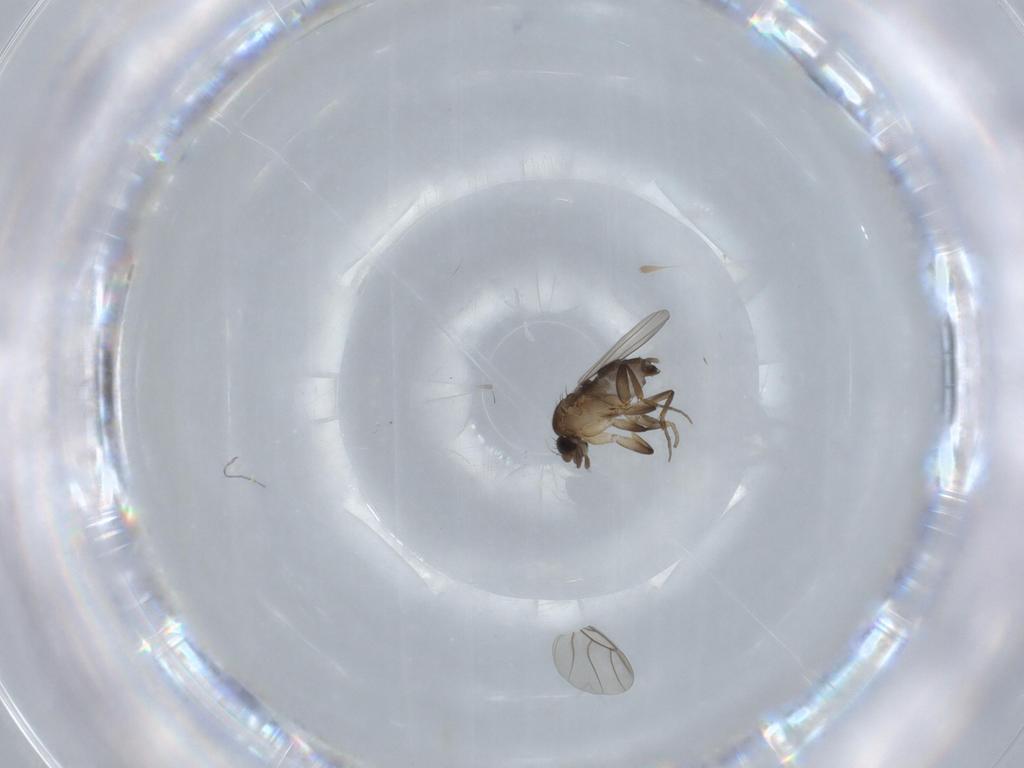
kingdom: Animalia
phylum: Arthropoda
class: Insecta
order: Diptera
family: Phoridae
